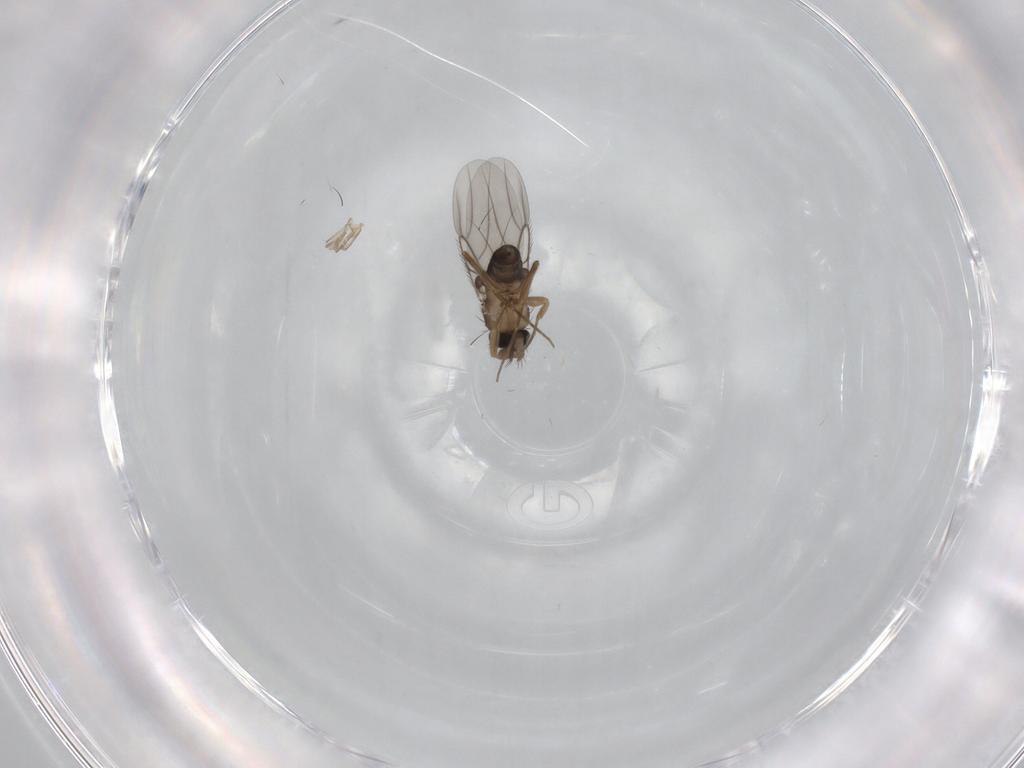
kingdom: Animalia
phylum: Arthropoda
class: Insecta
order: Diptera
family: Phoridae
